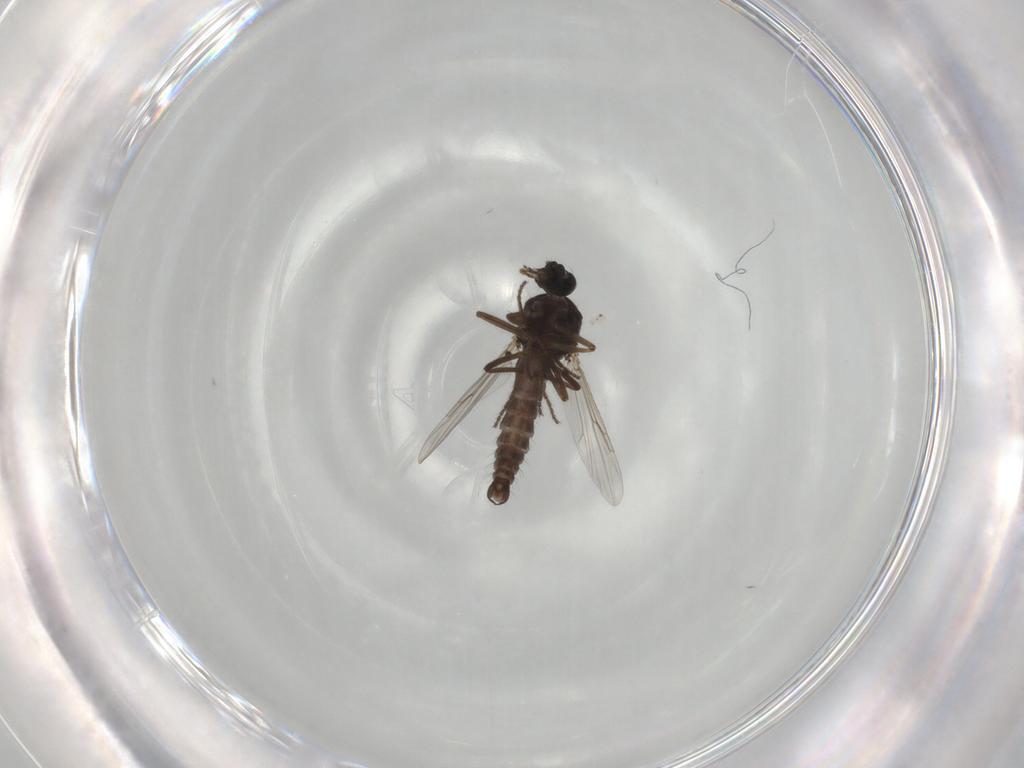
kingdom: Animalia
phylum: Arthropoda
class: Insecta
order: Diptera
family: Ceratopogonidae
